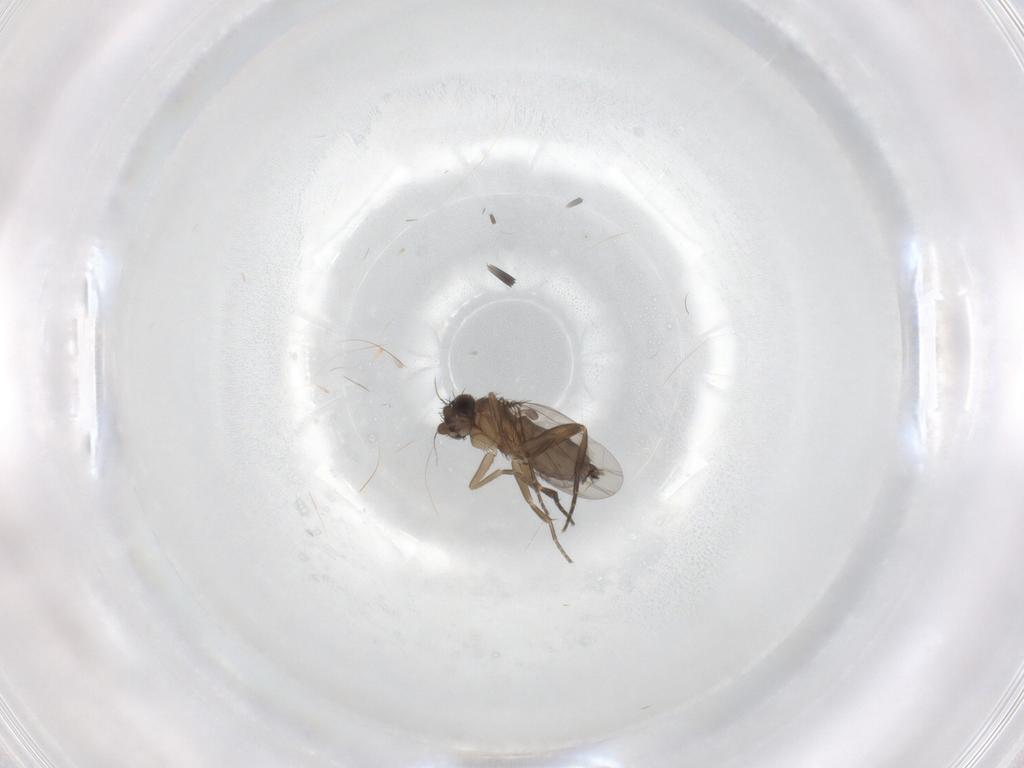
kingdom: Animalia
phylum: Arthropoda
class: Insecta
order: Diptera
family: Phoridae
